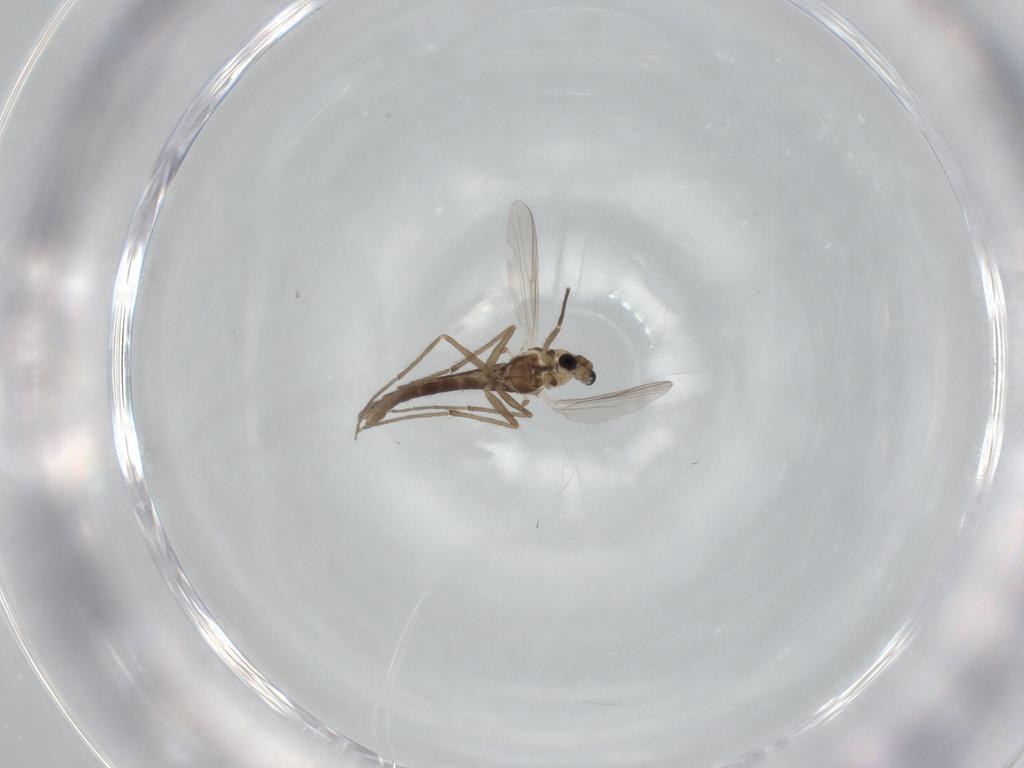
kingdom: Animalia
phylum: Arthropoda
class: Insecta
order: Diptera
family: Chironomidae
